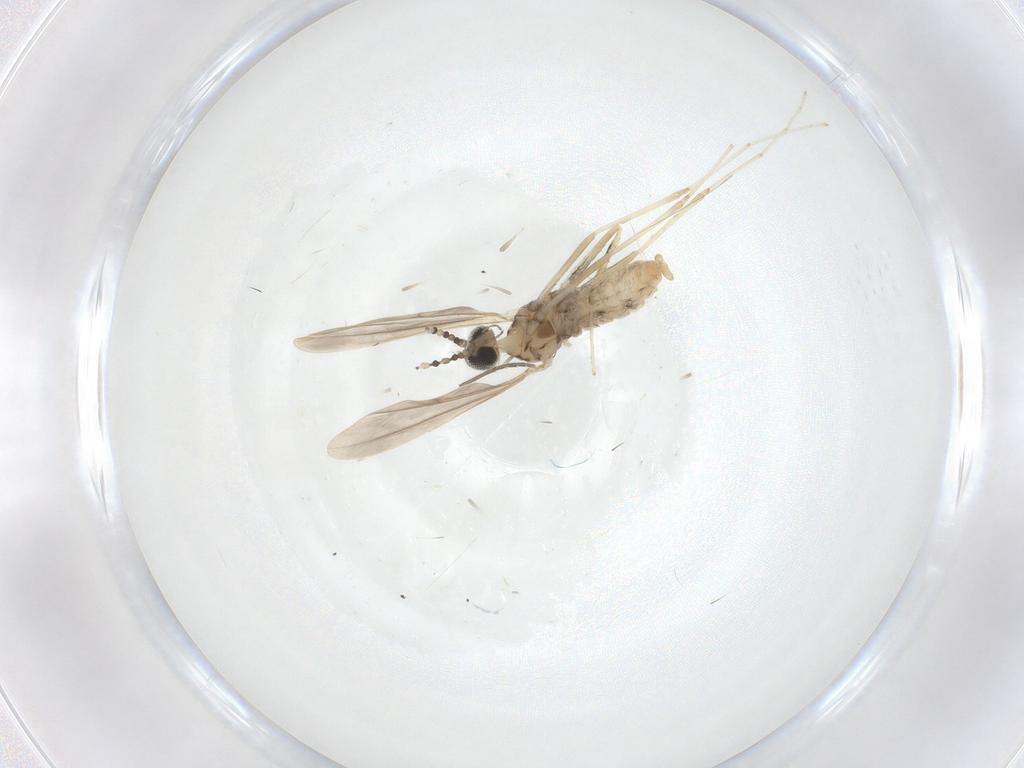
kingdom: Animalia
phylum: Arthropoda
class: Insecta
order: Diptera
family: Cecidomyiidae
